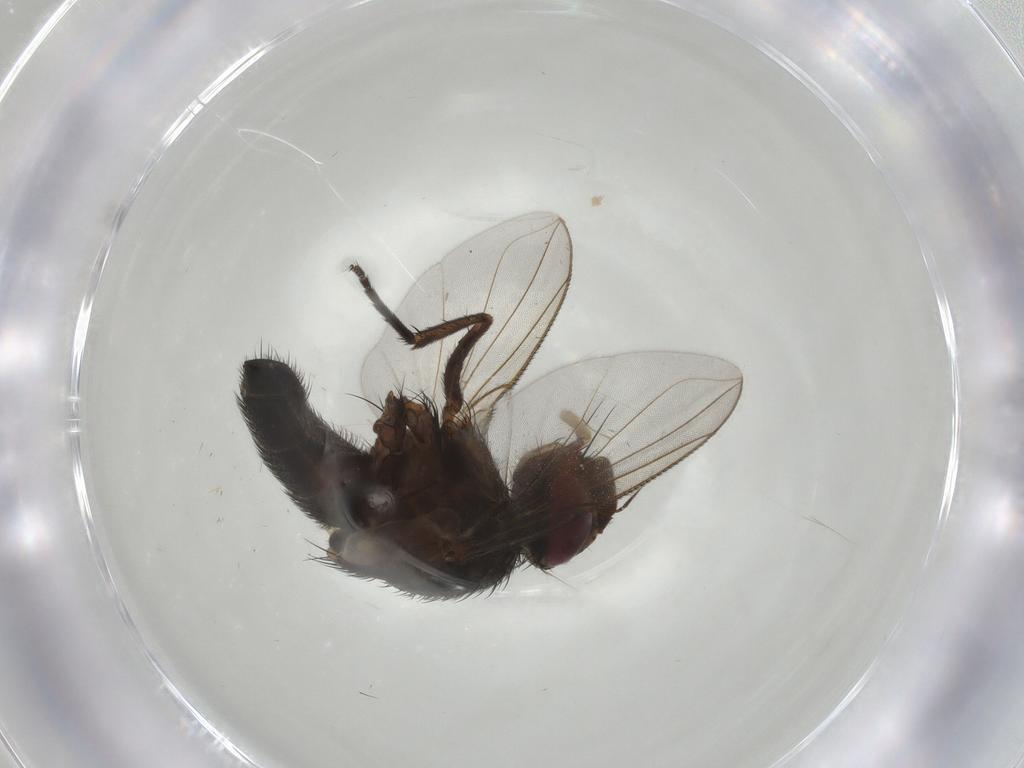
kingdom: Animalia
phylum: Arthropoda
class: Insecta
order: Diptera
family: Tachinidae
